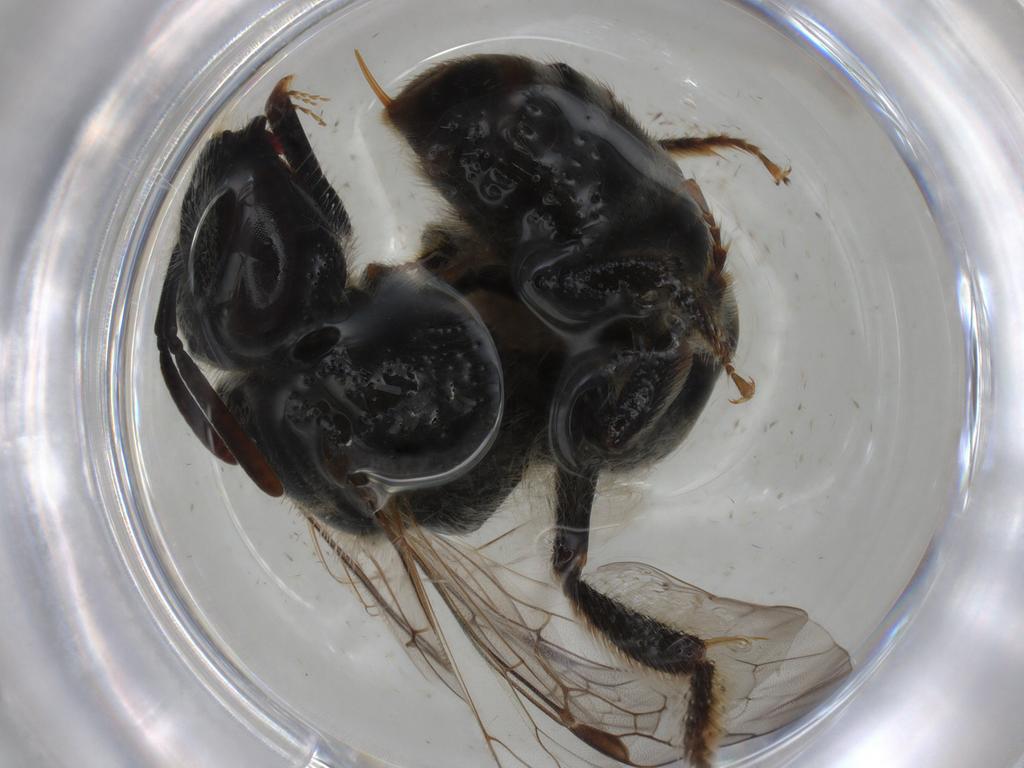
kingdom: Animalia
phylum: Arthropoda
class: Insecta
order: Hymenoptera
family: Halictidae
